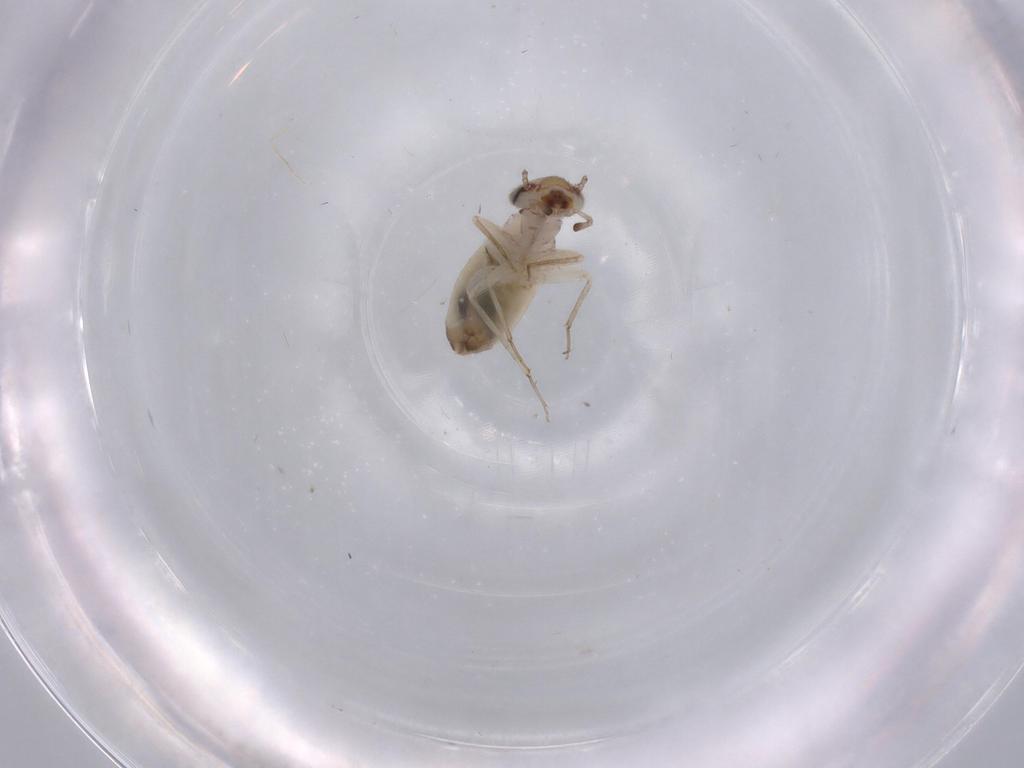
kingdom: Animalia
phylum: Arthropoda
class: Insecta
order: Psocodea
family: Lepidopsocidae
